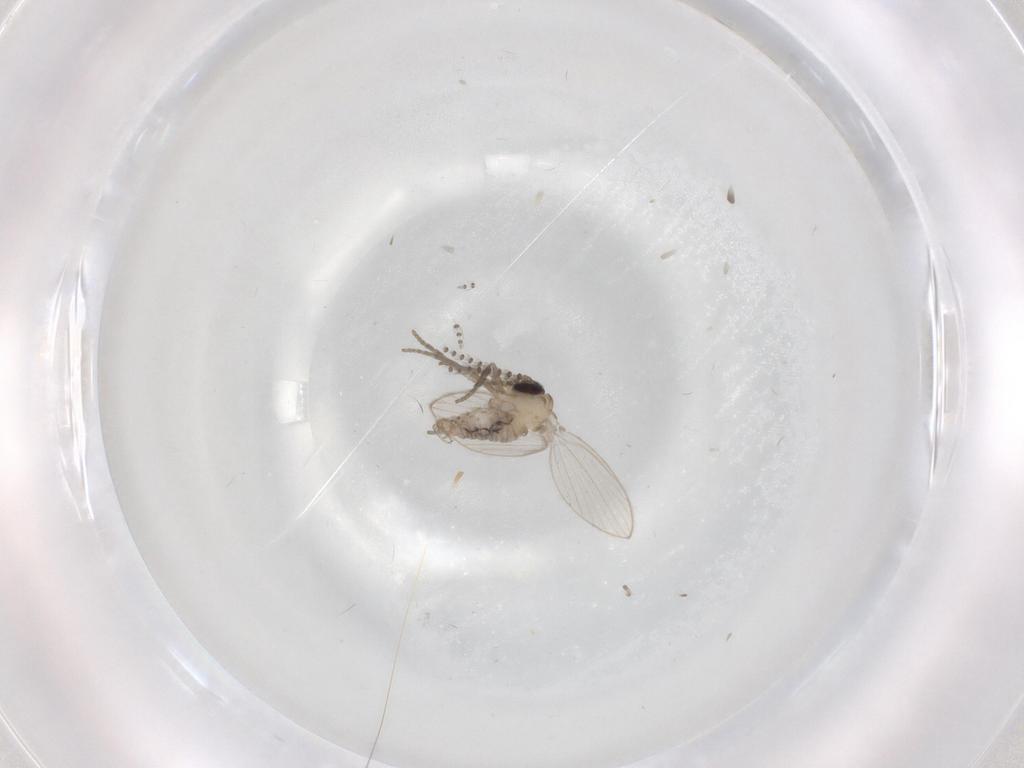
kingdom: Animalia
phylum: Arthropoda
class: Insecta
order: Diptera
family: Psychodidae
